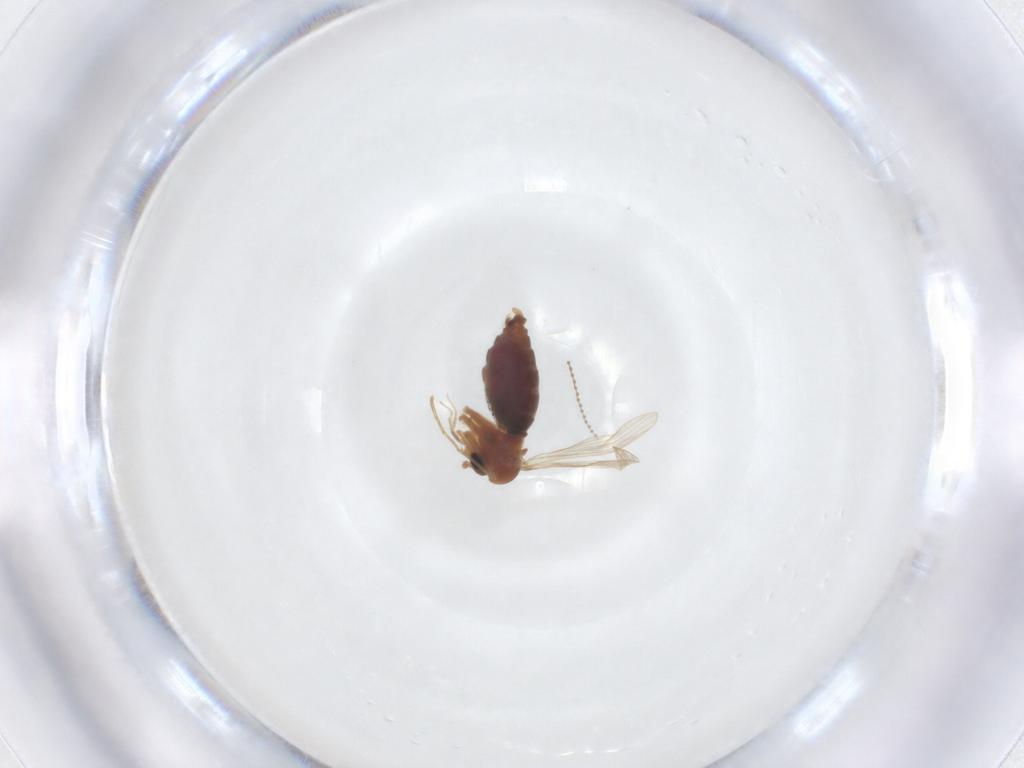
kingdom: Animalia
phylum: Arthropoda
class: Insecta
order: Diptera
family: Psychodidae
